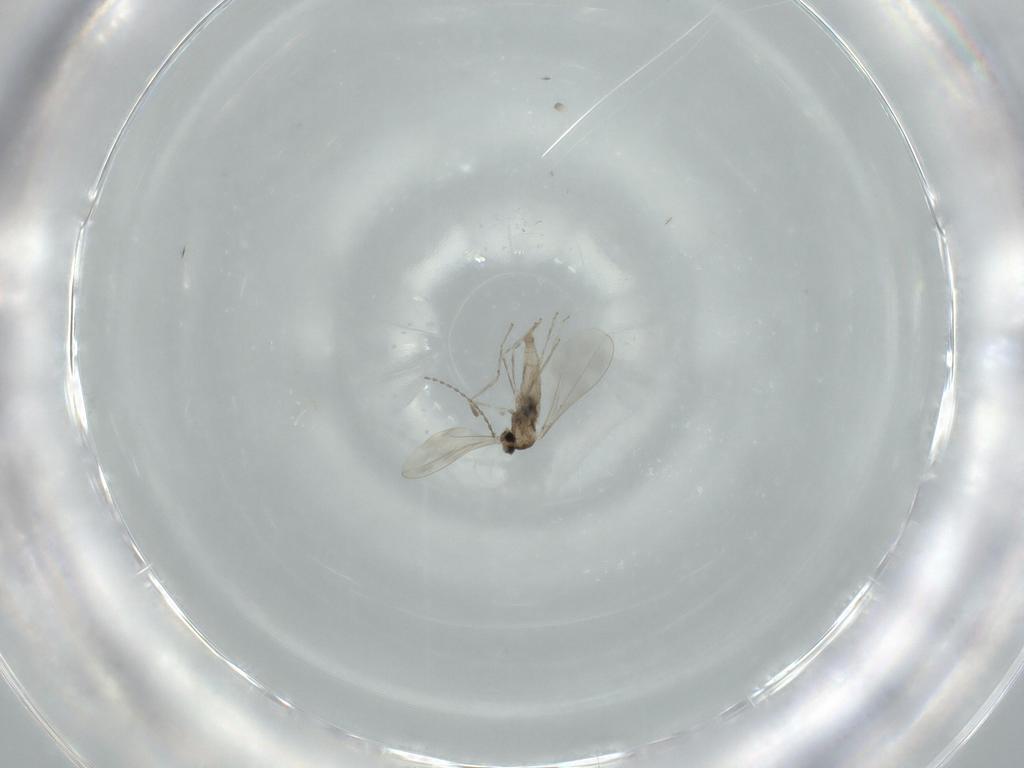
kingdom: Animalia
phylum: Arthropoda
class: Insecta
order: Diptera
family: Cecidomyiidae
